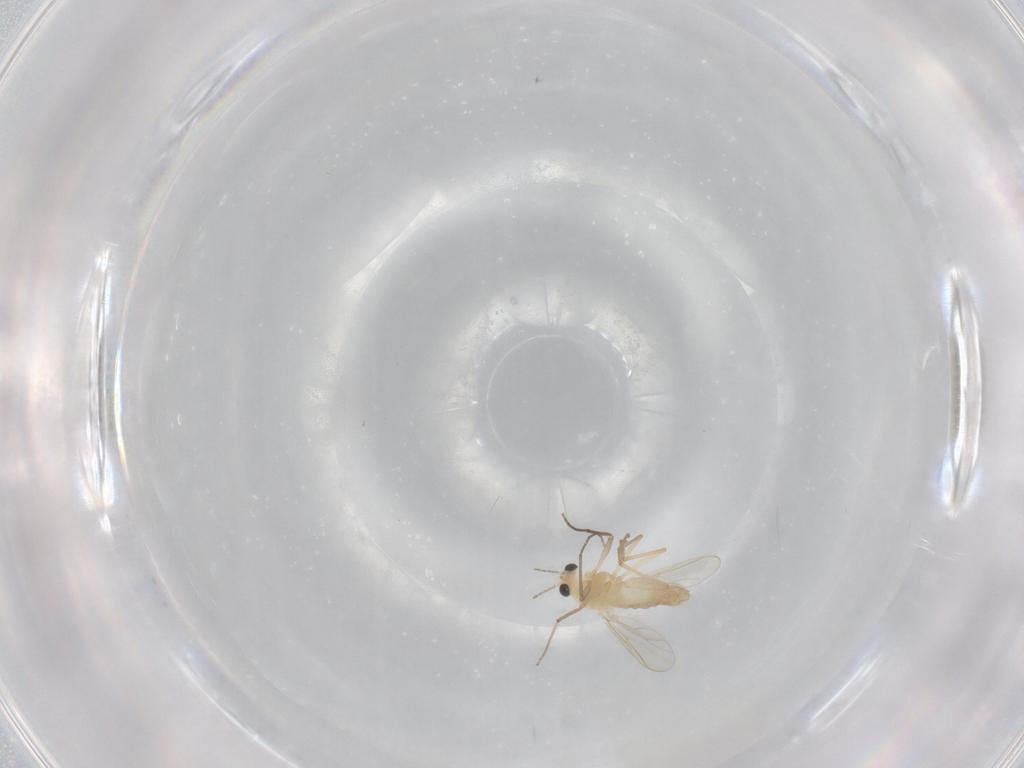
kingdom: Animalia
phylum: Arthropoda
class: Insecta
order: Diptera
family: Chironomidae
